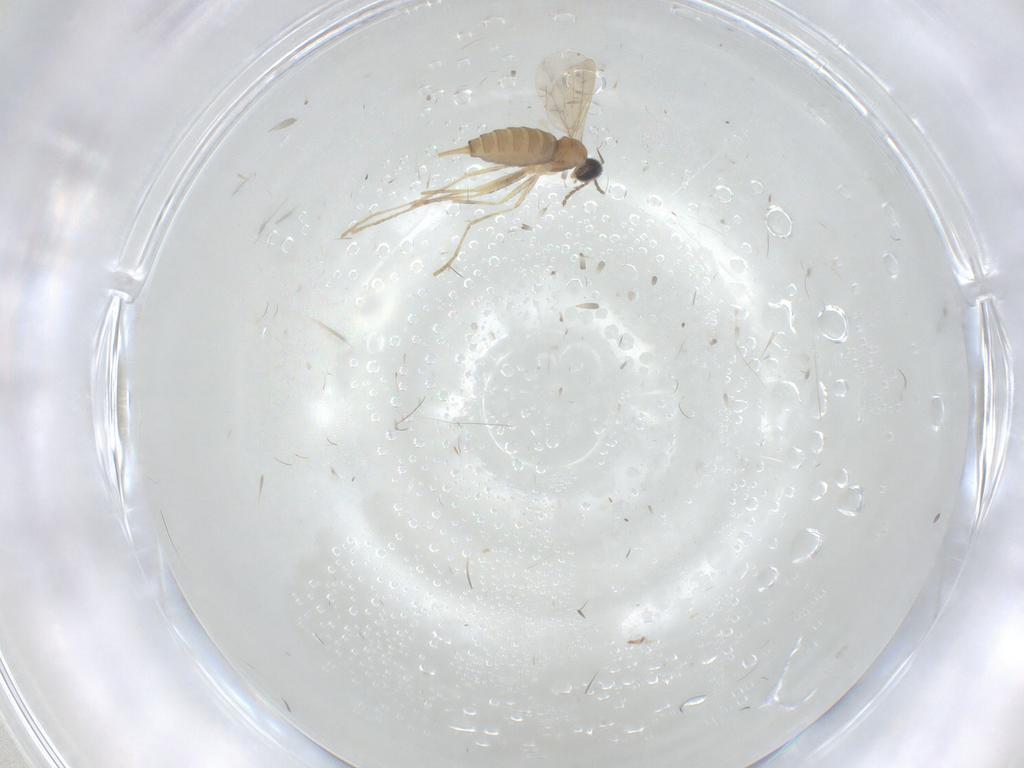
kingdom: Animalia
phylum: Arthropoda
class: Insecta
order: Diptera
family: Cecidomyiidae
